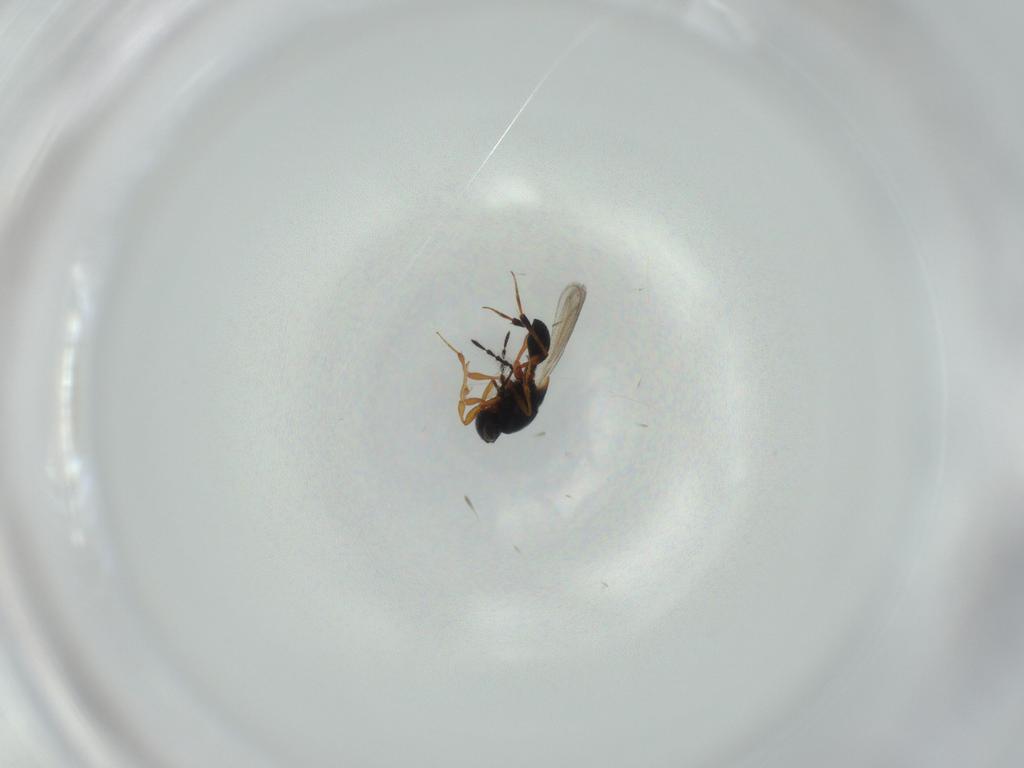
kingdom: Animalia
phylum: Arthropoda
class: Insecta
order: Hymenoptera
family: Platygastridae
